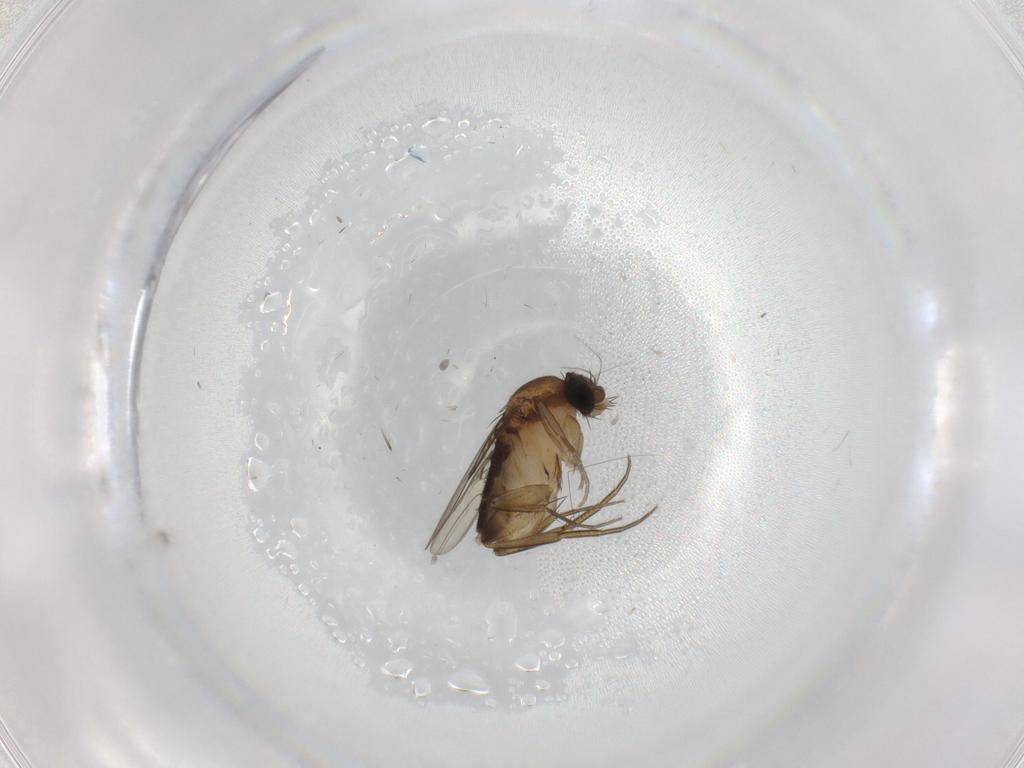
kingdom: Animalia
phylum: Arthropoda
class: Insecta
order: Diptera
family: Phoridae
